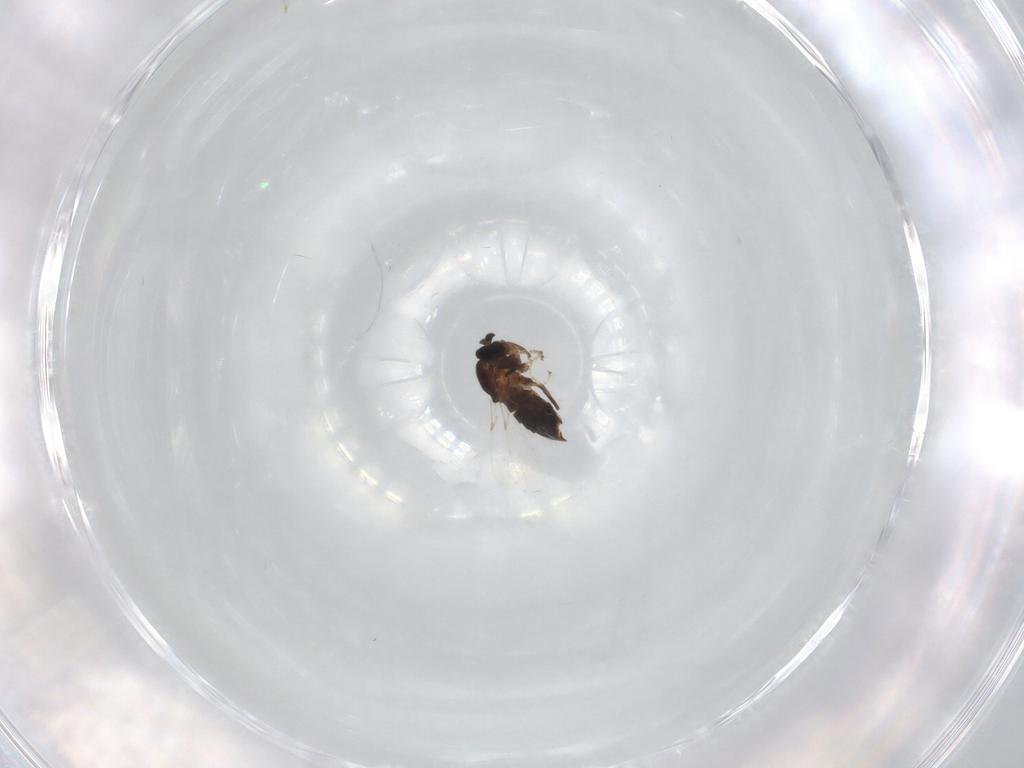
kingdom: Animalia
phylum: Arthropoda
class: Insecta
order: Diptera
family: Scatopsidae
